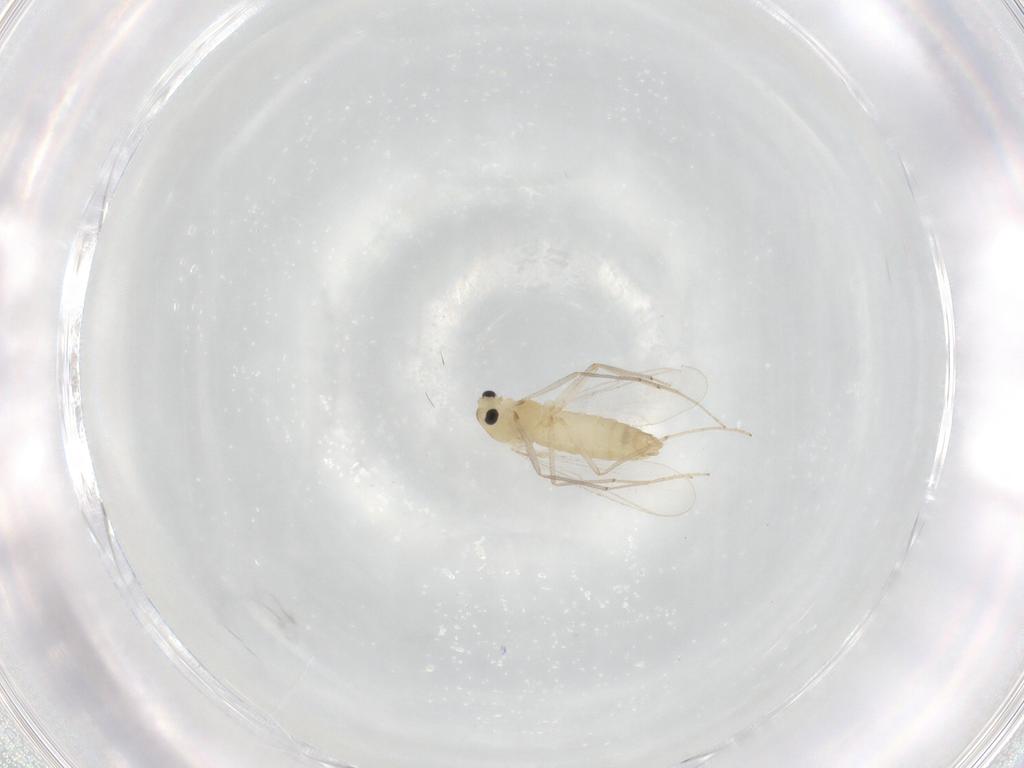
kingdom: Animalia
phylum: Arthropoda
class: Insecta
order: Diptera
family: Chironomidae
